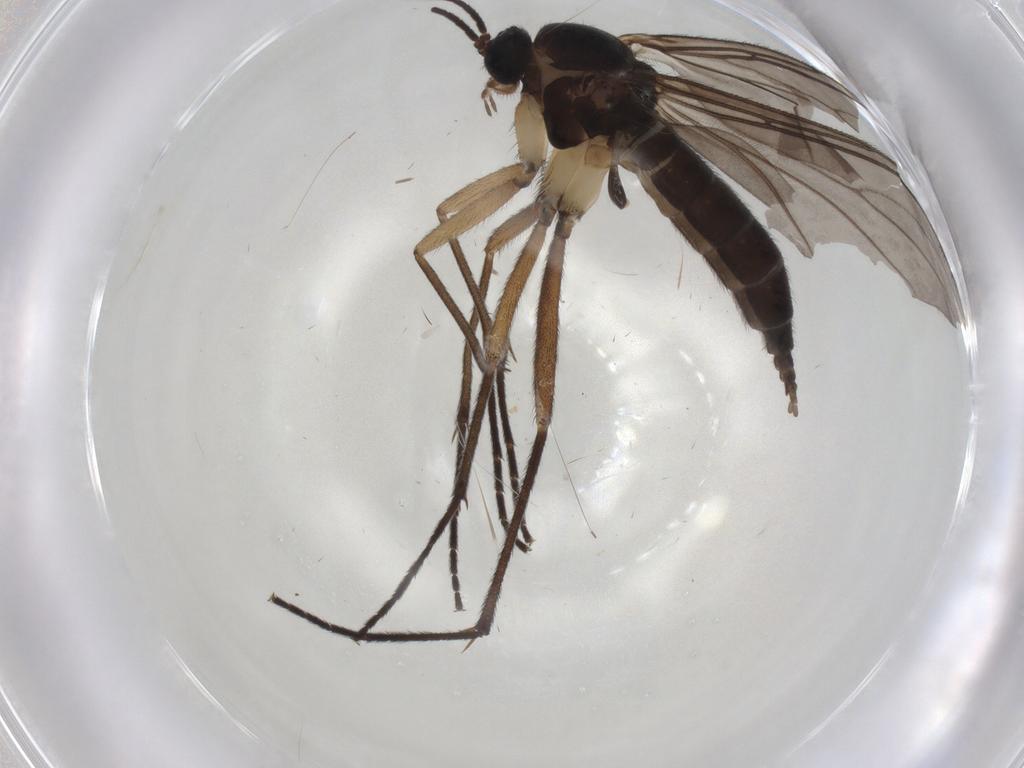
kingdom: Animalia
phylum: Arthropoda
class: Insecta
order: Diptera
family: Sciaridae
